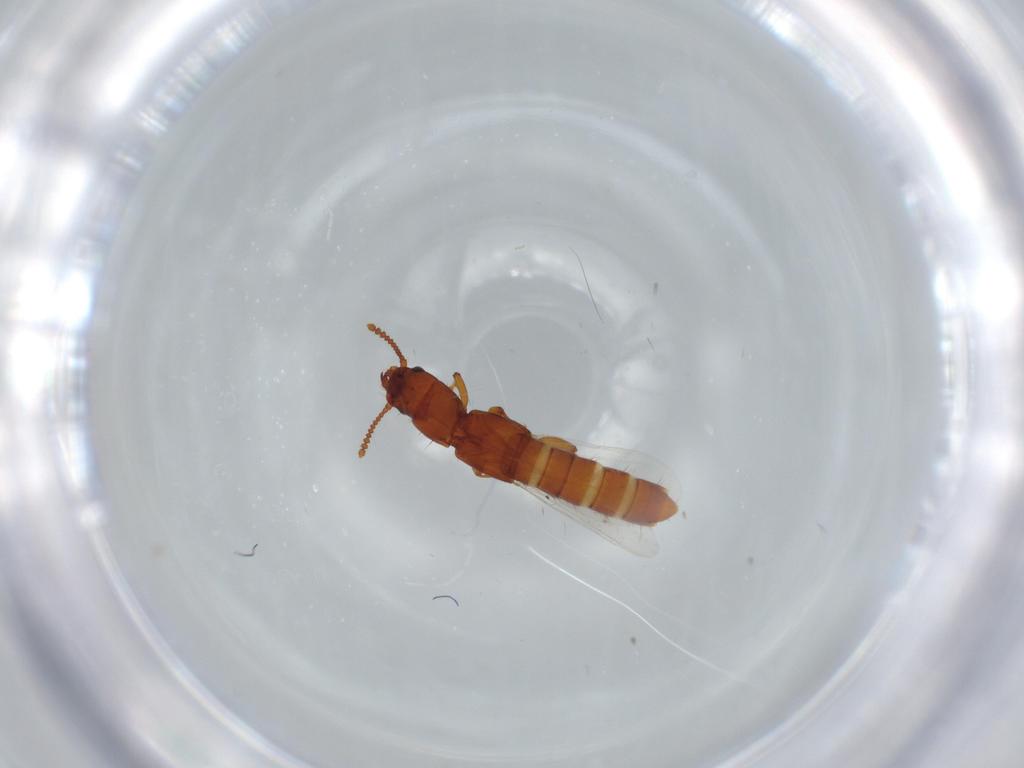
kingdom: Animalia
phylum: Arthropoda
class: Insecta
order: Coleoptera
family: Staphylinidae
